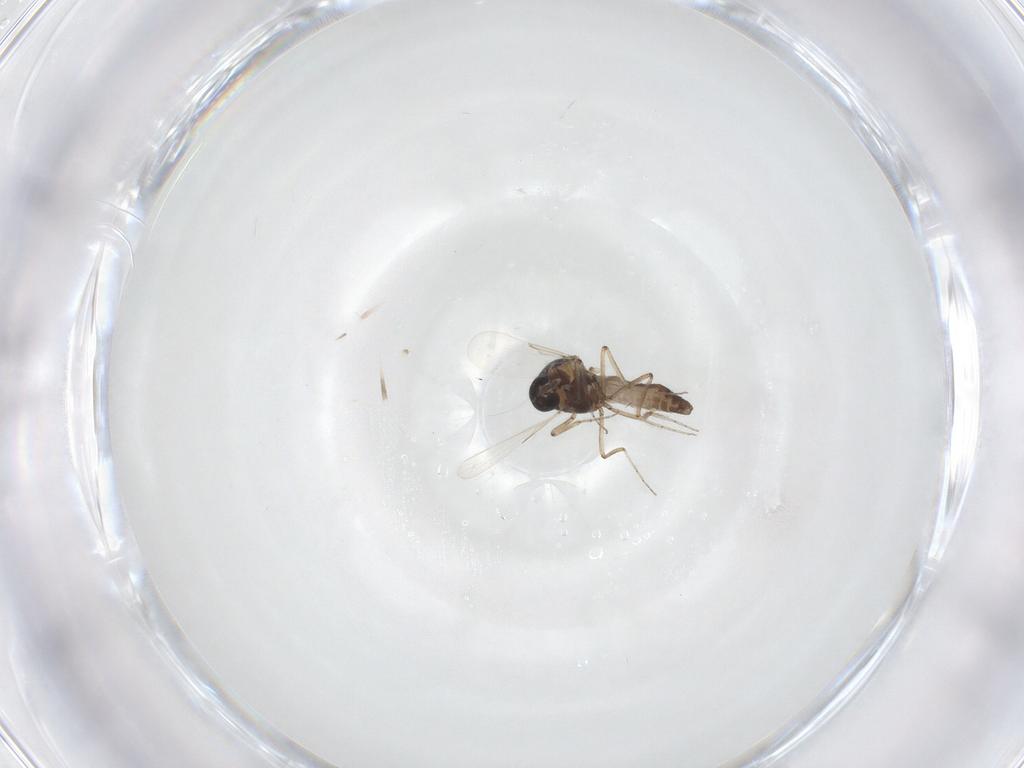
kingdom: Animalia
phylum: Arthropoda
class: Insecta
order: Diptera
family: Ceratopogonidae
